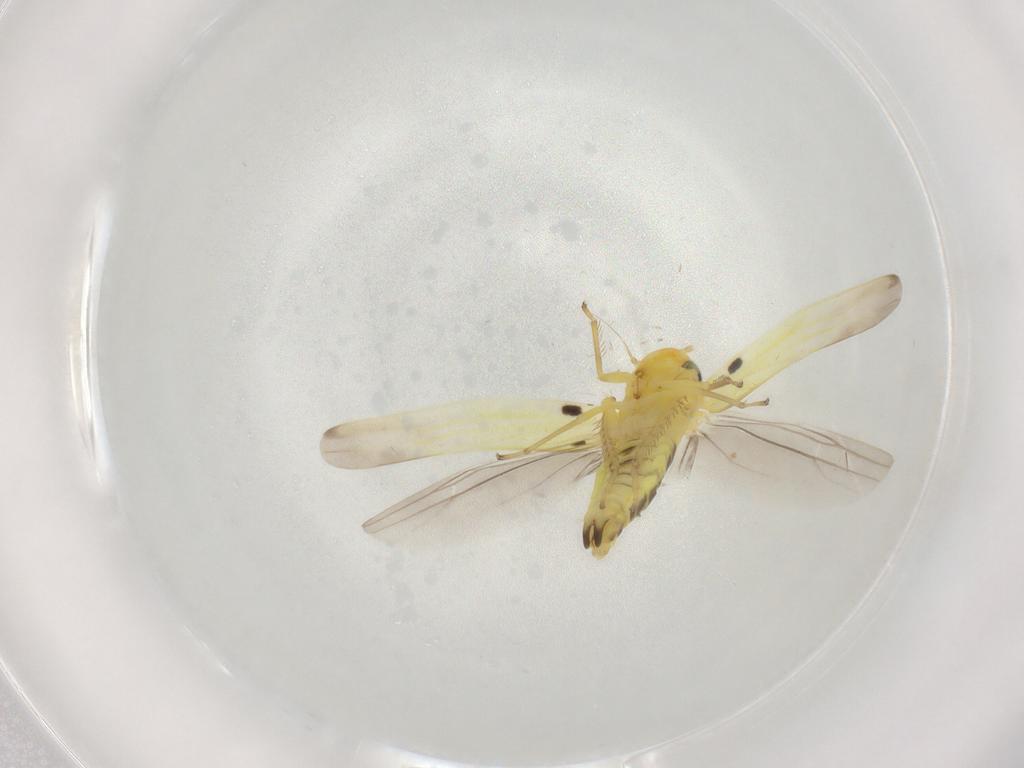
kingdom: Animalia
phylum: Arthropoda
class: Insecta
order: Hemiptera
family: Cicadellidae
